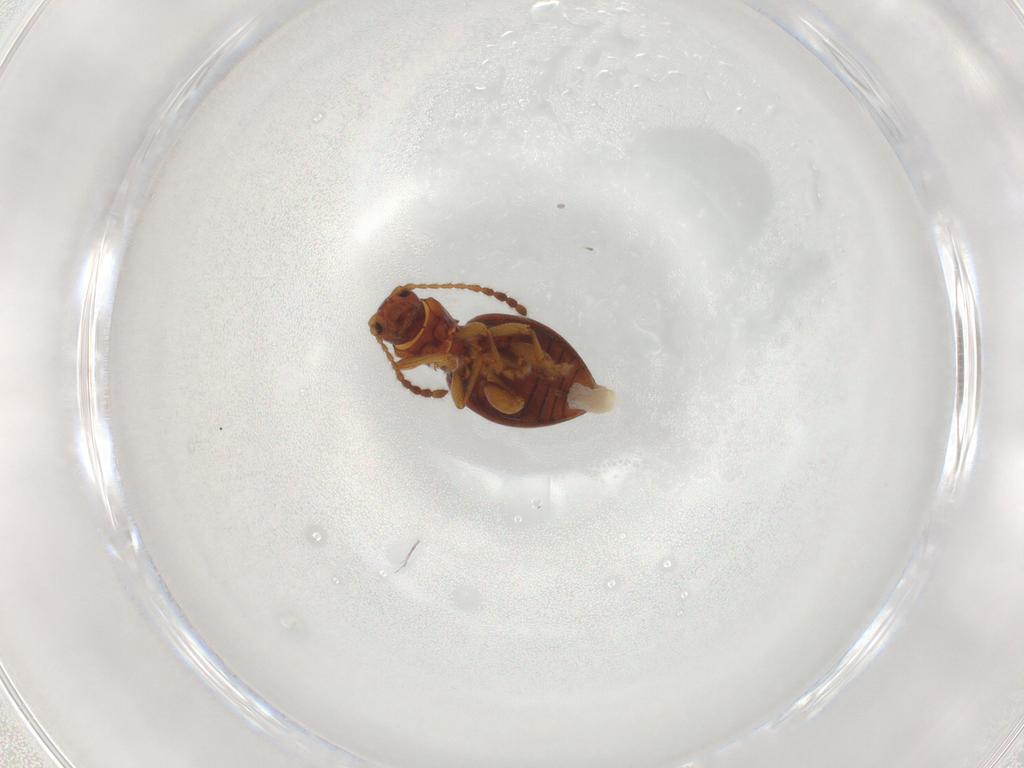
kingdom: Animalia
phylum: Arthropoda
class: Insecta
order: Coleoptera
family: Chrysomelidae
